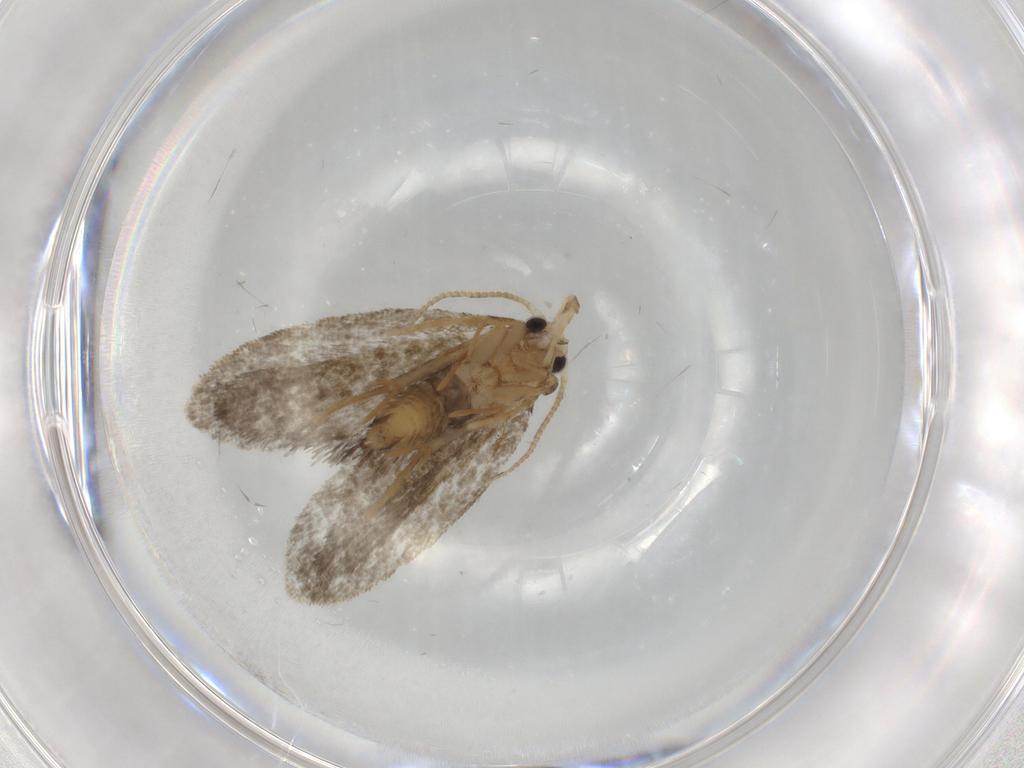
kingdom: Animalia
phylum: Arthropoda
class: Insecta
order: Lepidoptera
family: Psychidae
